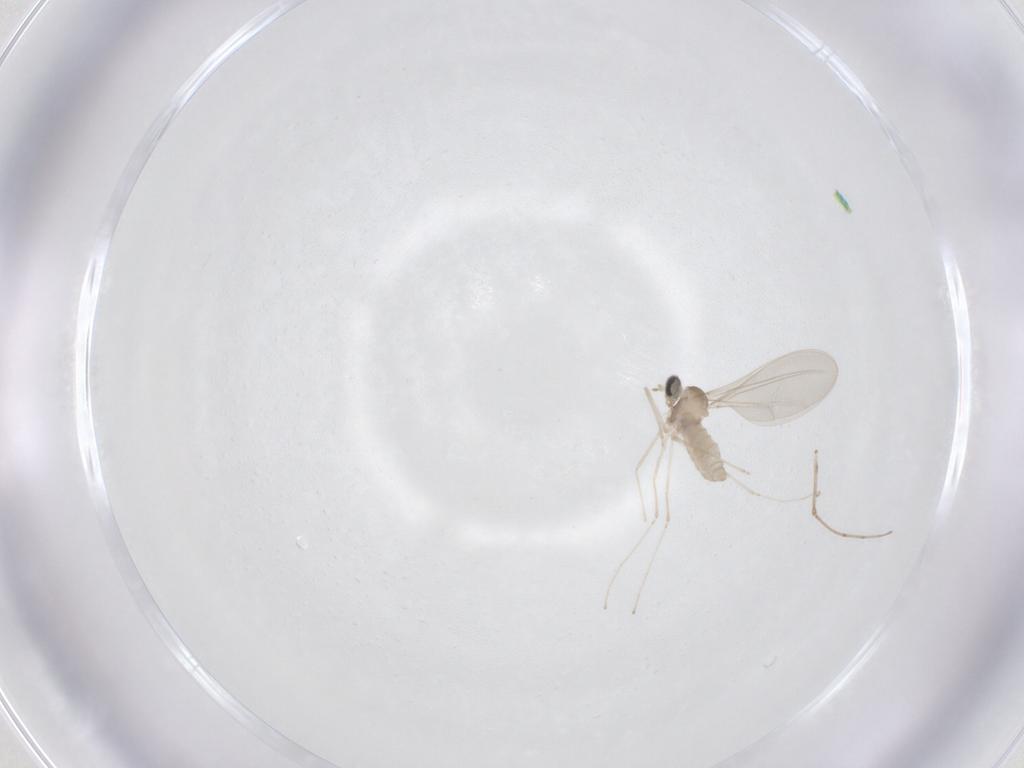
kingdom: Animalia
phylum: Arthropoda
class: Insecta
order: Diptera
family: Cecidomyiidae
